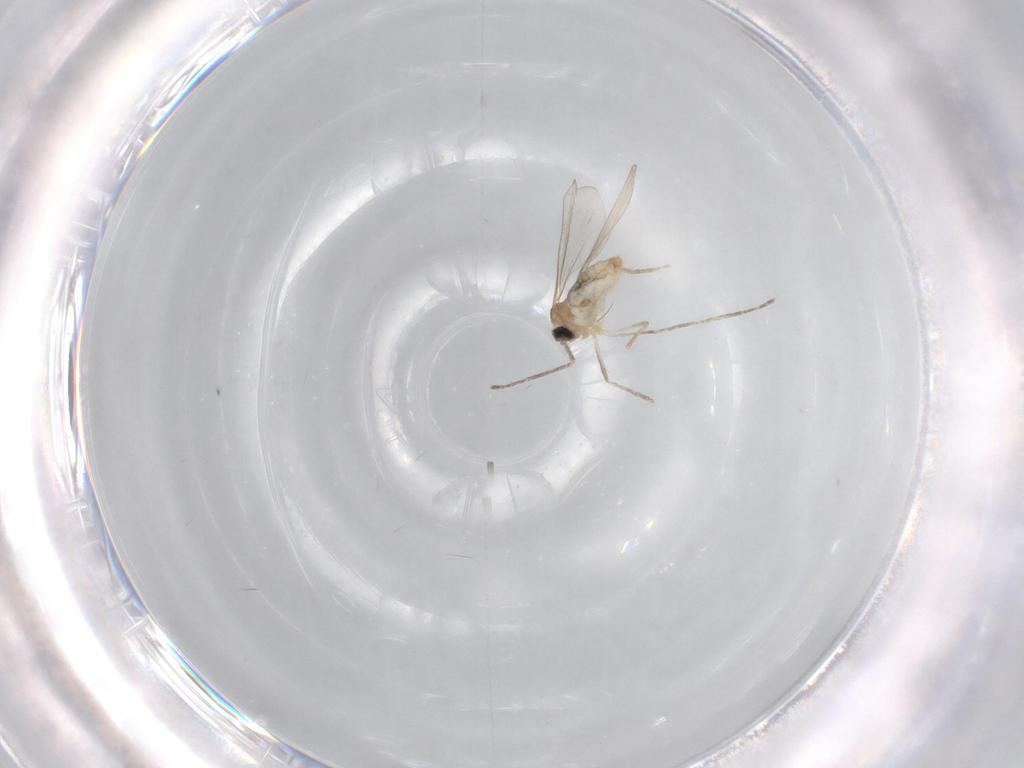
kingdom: Animalia
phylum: Arthropoda
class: Insecta
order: Diptera
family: Cecidomyiidae
